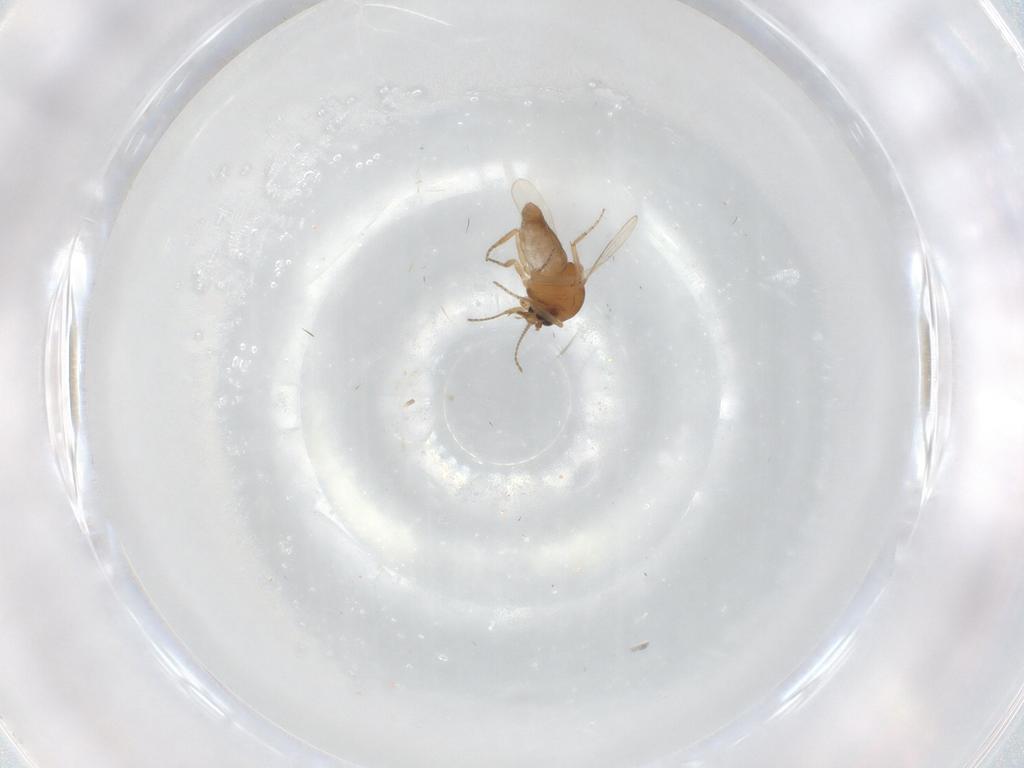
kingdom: Animalia
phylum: Arthropoda
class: Insecta
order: Diptera
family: Ceratopogonidae
